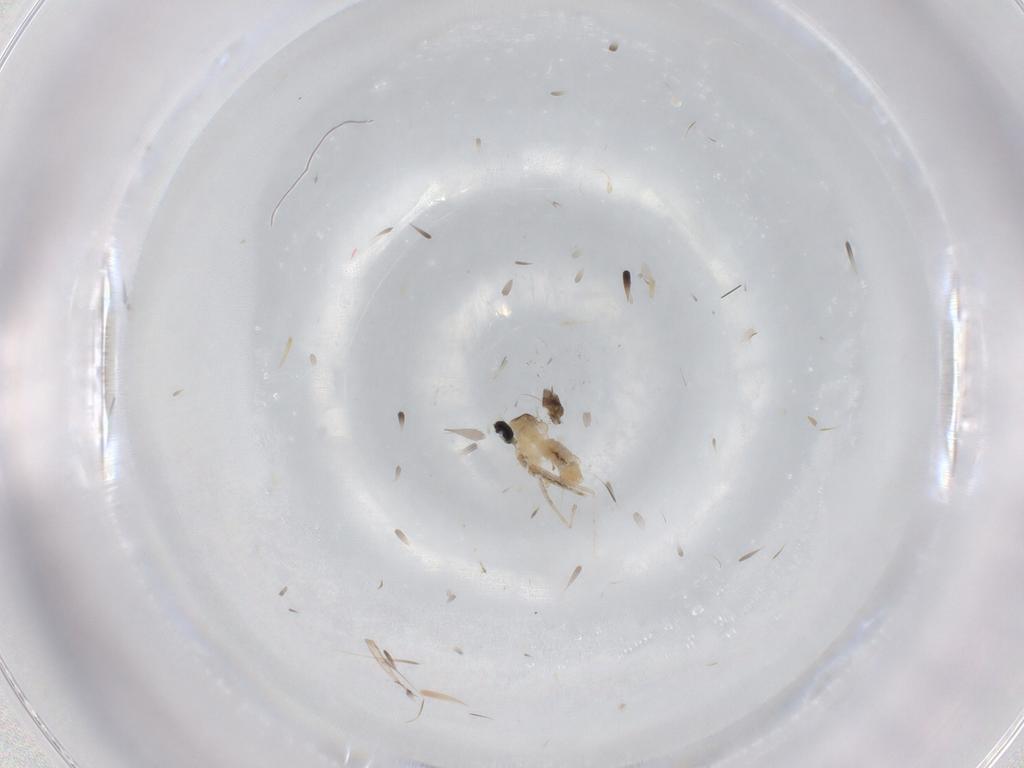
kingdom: Animalia
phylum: Arthropoda
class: Insecta
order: Diptera
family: Cecidomyiidae
